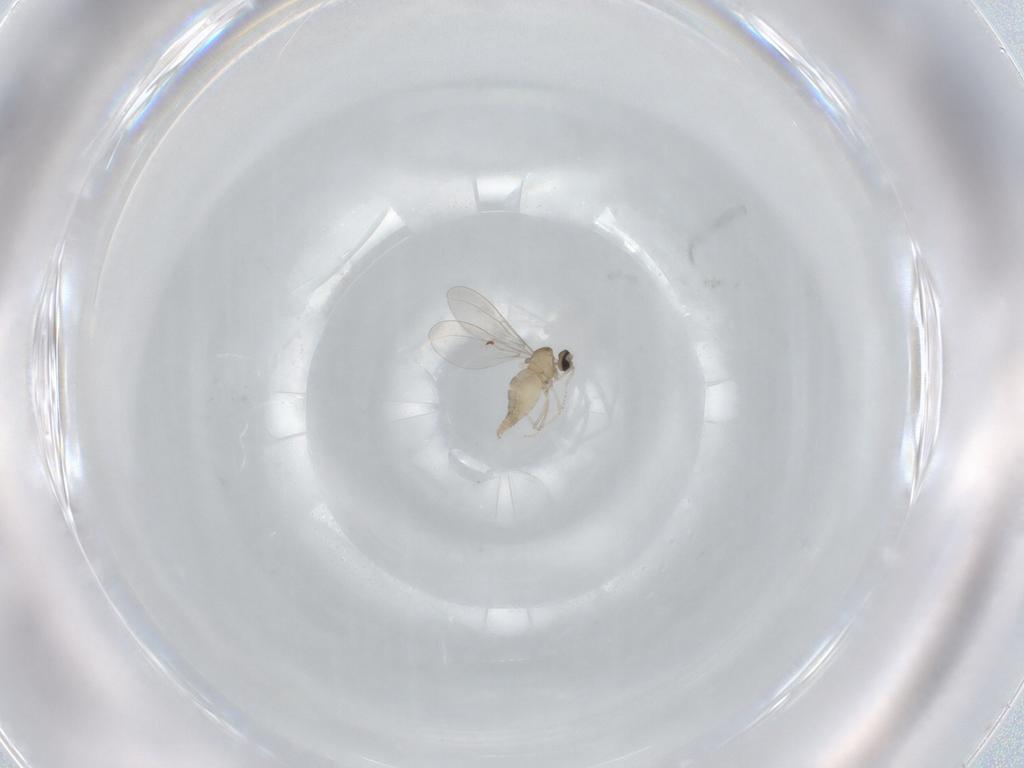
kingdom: Animalia
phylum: Arthropoda
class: Insecta
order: Diptera
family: Cecidomyiidae
